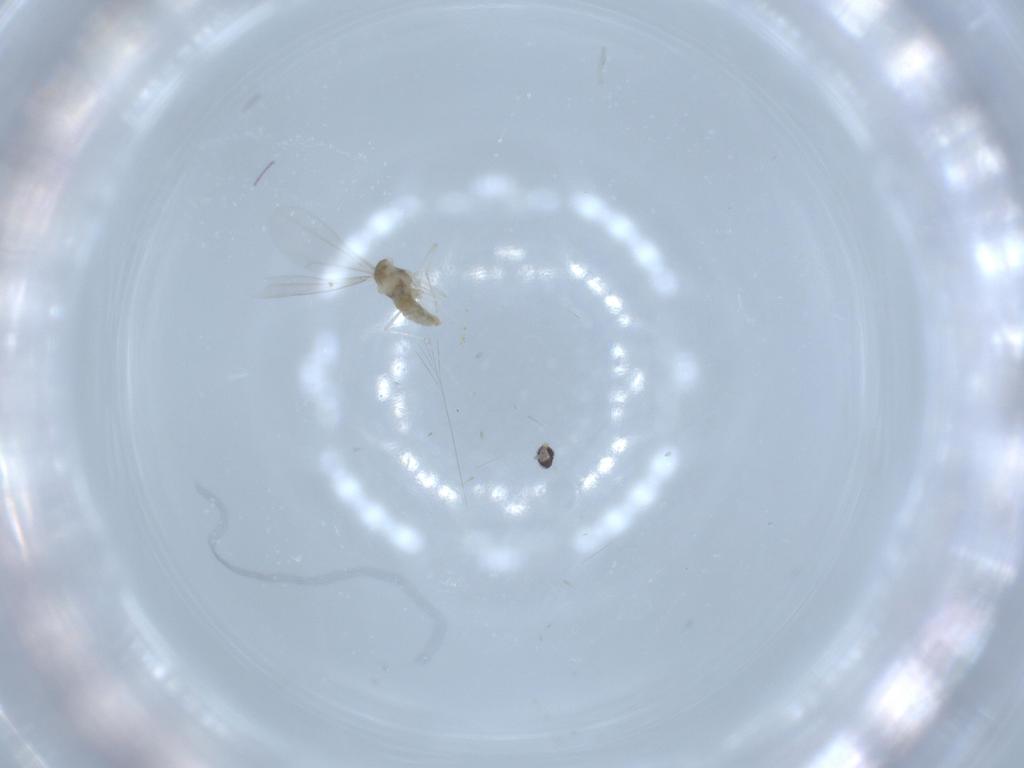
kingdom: Animalia
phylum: Arthropoda
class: Insecta
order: Diptera
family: Cecidomyiidae
